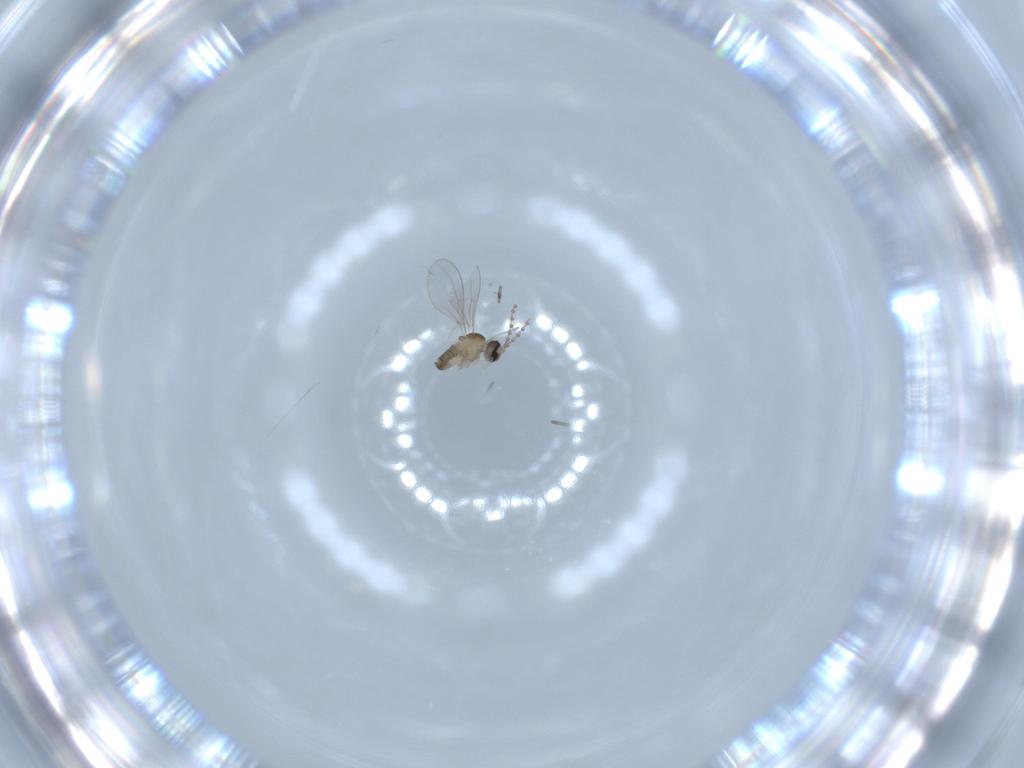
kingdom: Animalia
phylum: Arthropoda
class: Insecta
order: Diptera
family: Cecidomyiidae
